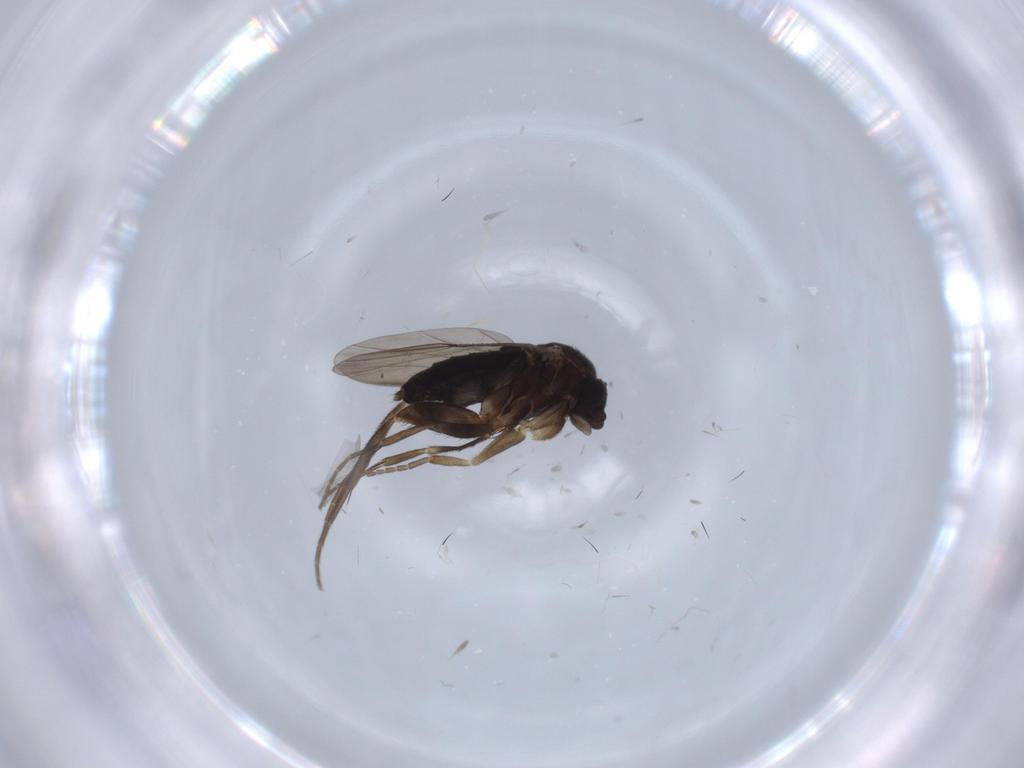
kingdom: Animalia
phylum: Arthropoda
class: Insecta
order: Diptera
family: Phoridae
